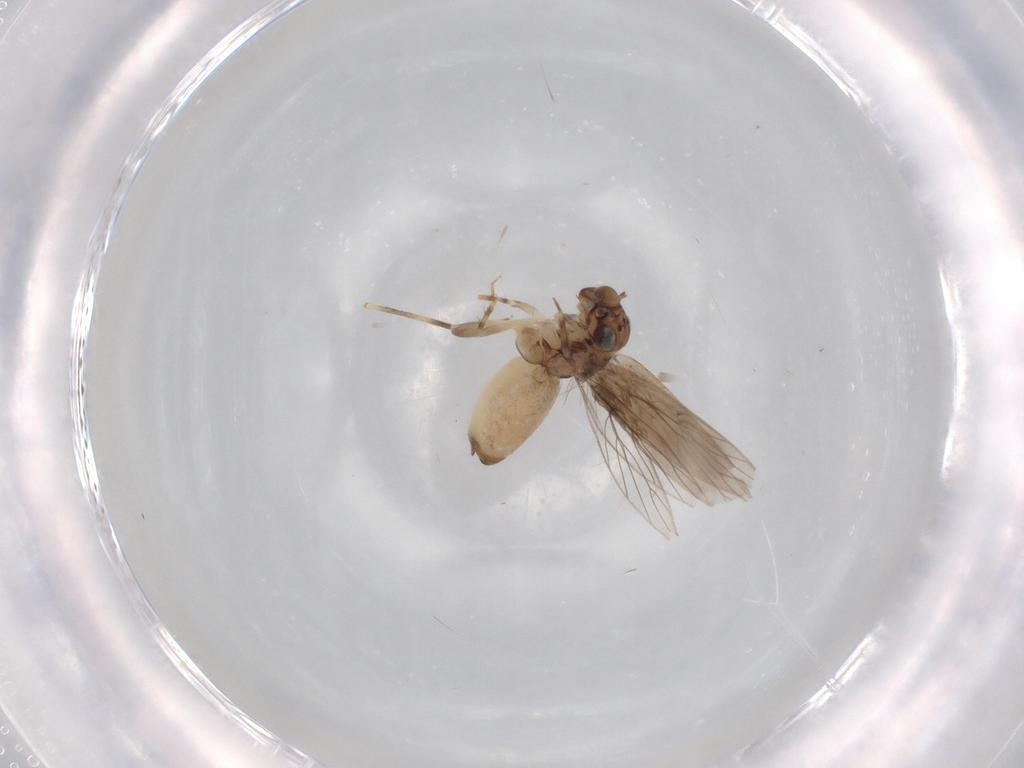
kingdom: Animalia
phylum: Arthropoda
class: Insecta
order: Psocodea
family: Lepidopsocidae
